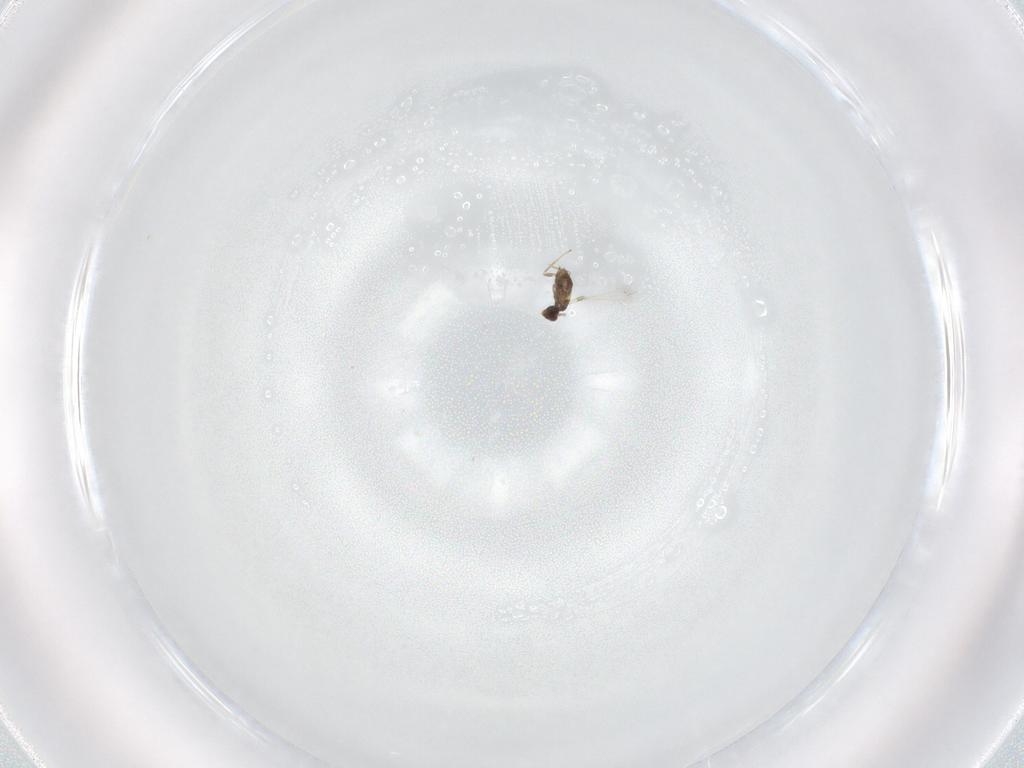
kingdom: Animalia
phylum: Arthropoda
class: Insecta
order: Hymenoptera
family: Mymaridae
